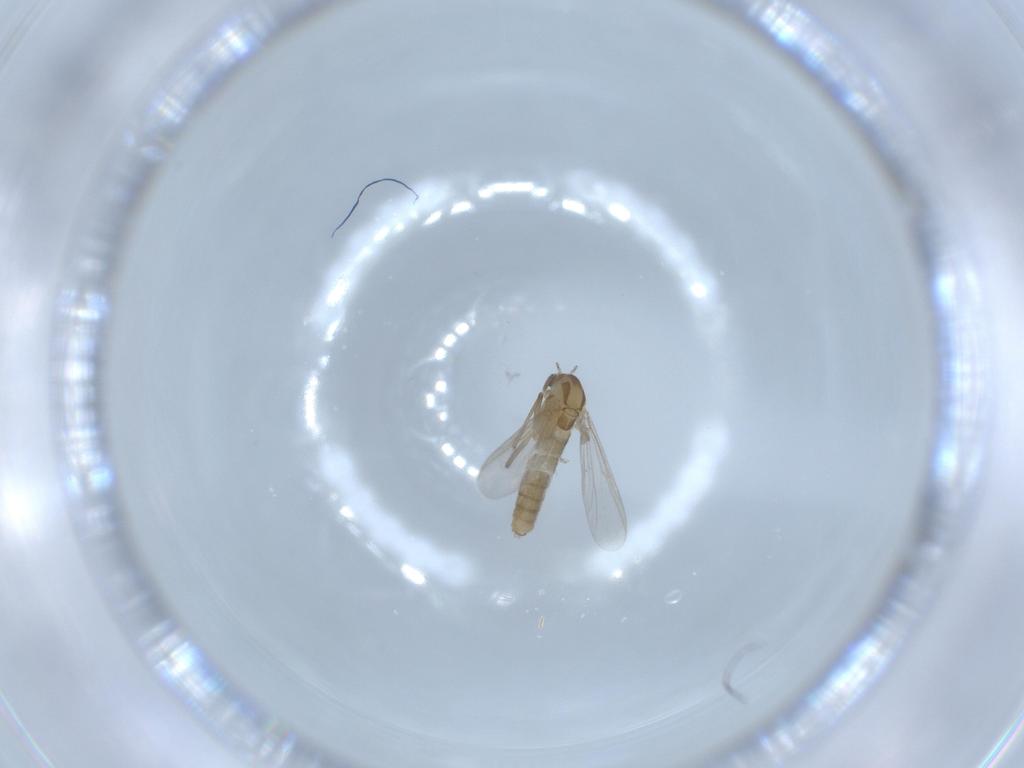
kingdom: Animalia
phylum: Arthropoda
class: Insecta
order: Diptera
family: Chironomidae
